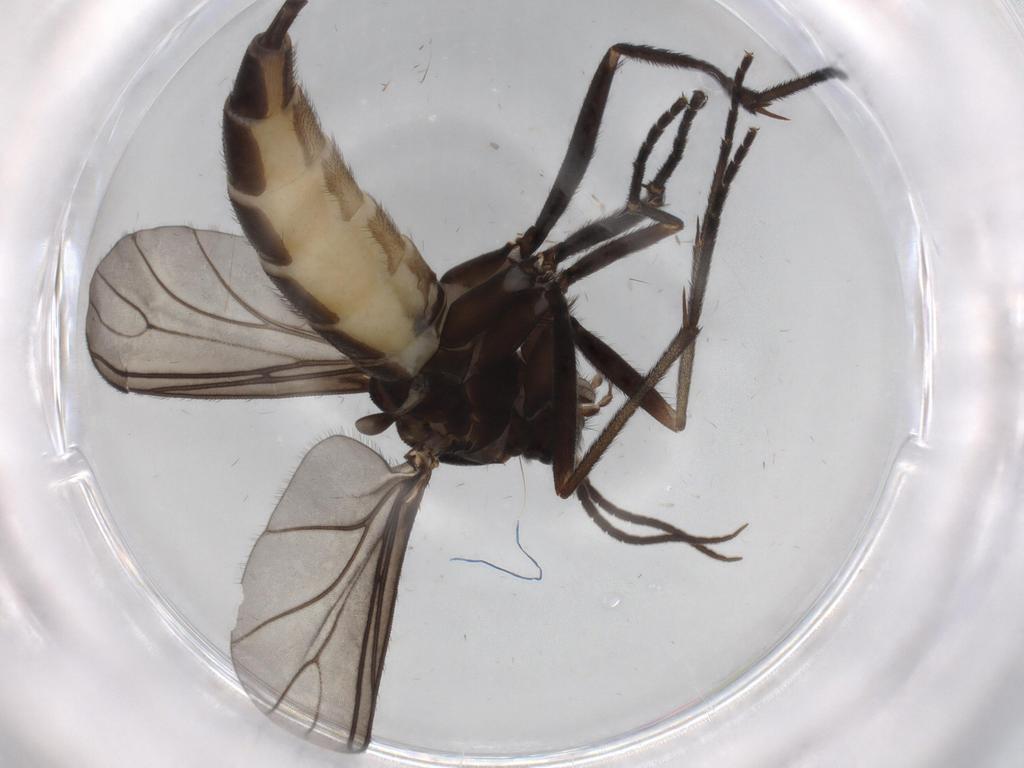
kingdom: Animalia
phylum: Arthropoda
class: Insecta
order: Diptera
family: Sciaridae
